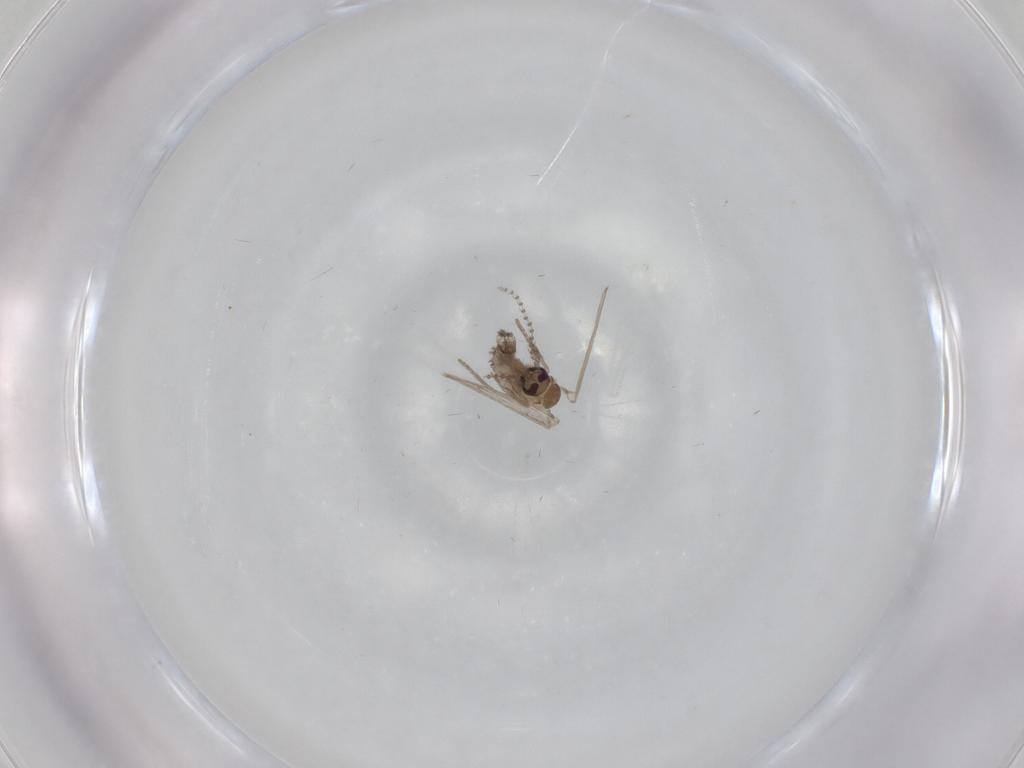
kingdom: Animalia
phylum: Arthropoda
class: Insecta
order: Diptera
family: Psychodidae
